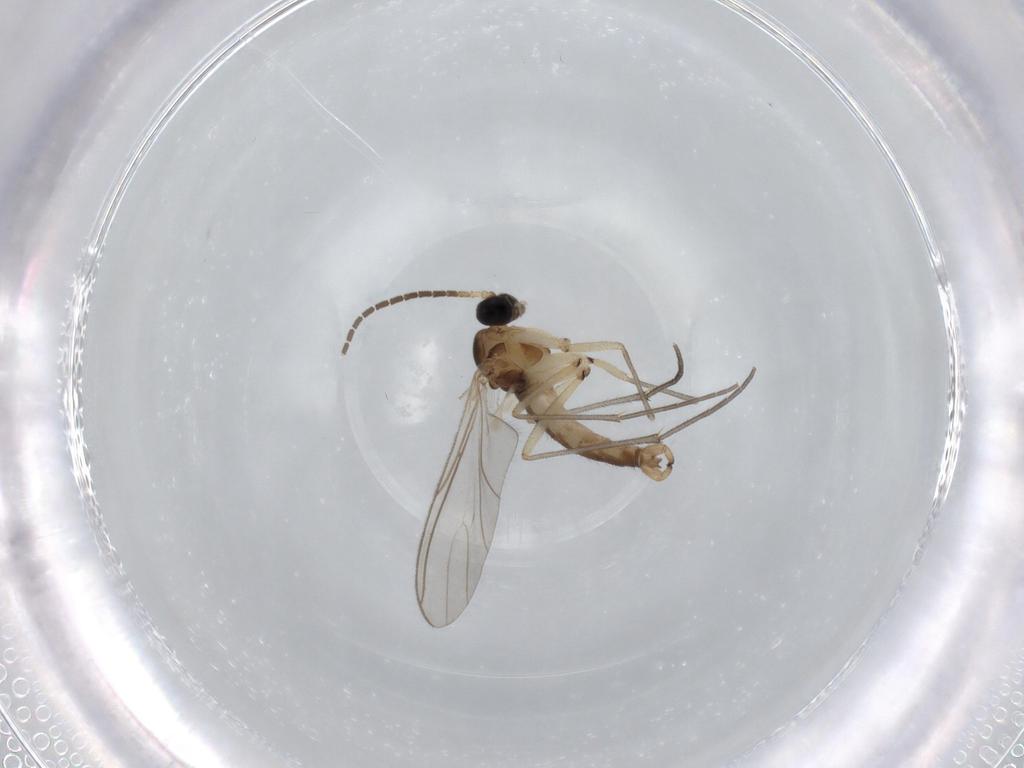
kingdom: Animalia
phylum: Arthropoda
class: Insecta
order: Diptera
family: Sciaridae
